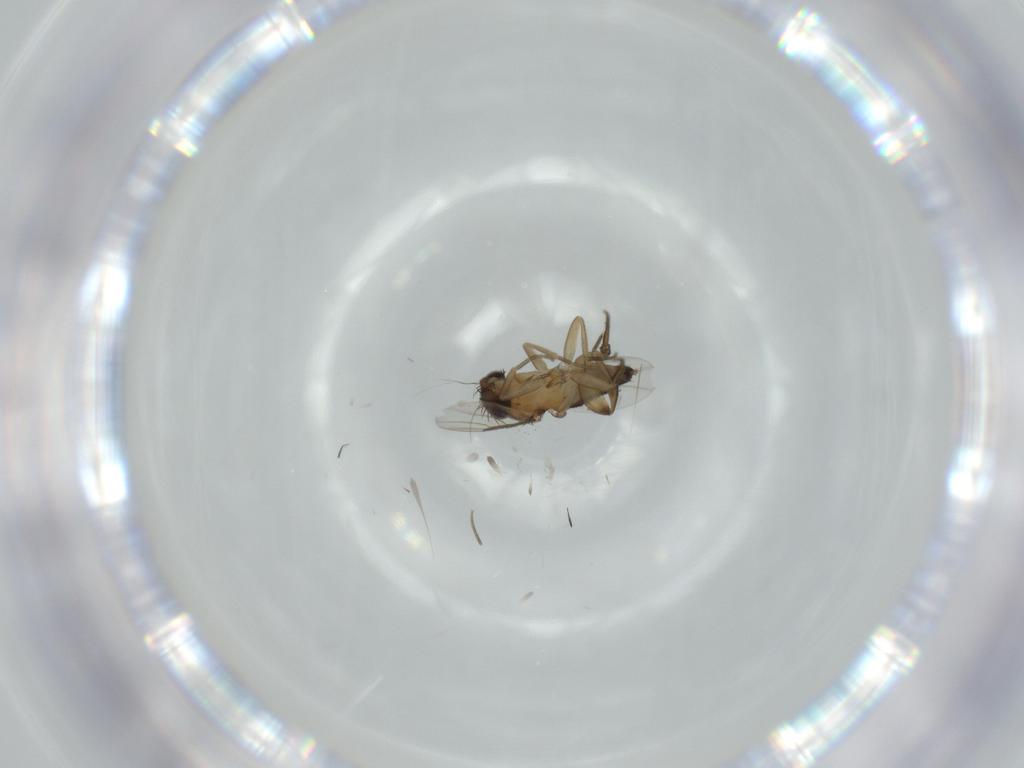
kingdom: Animalia
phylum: Arthropoda
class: Insecta
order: Diptera
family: Phoridae
